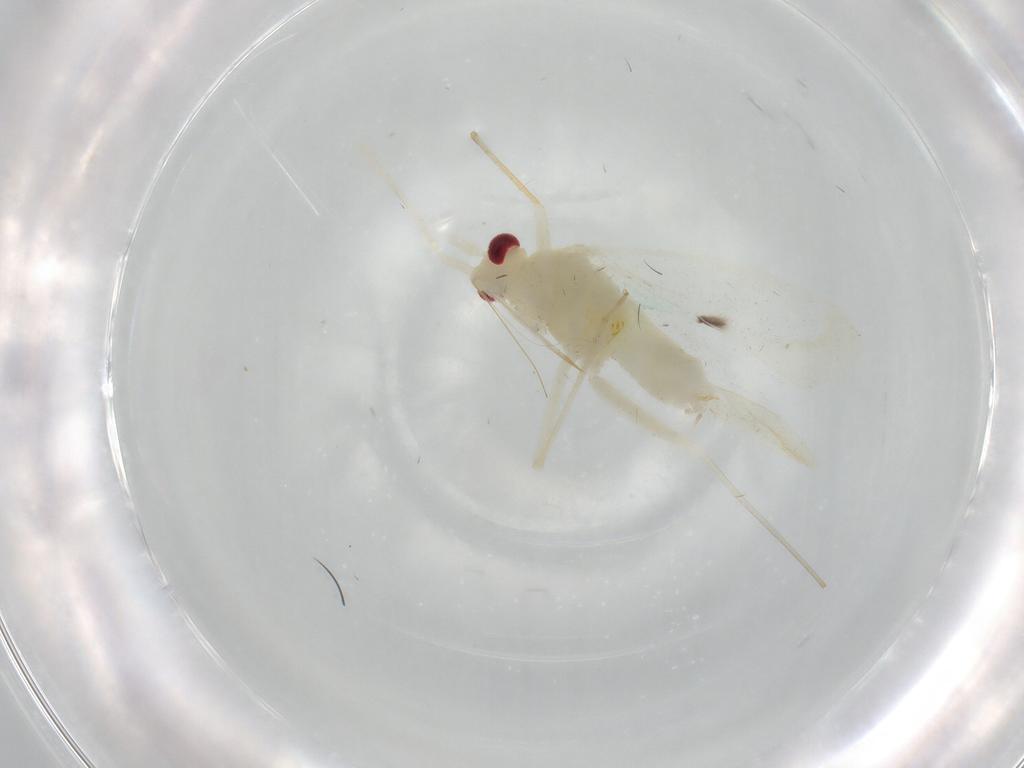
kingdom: Animalia
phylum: Arthropoda
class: Insecta
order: Hemiptera
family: Miridae
